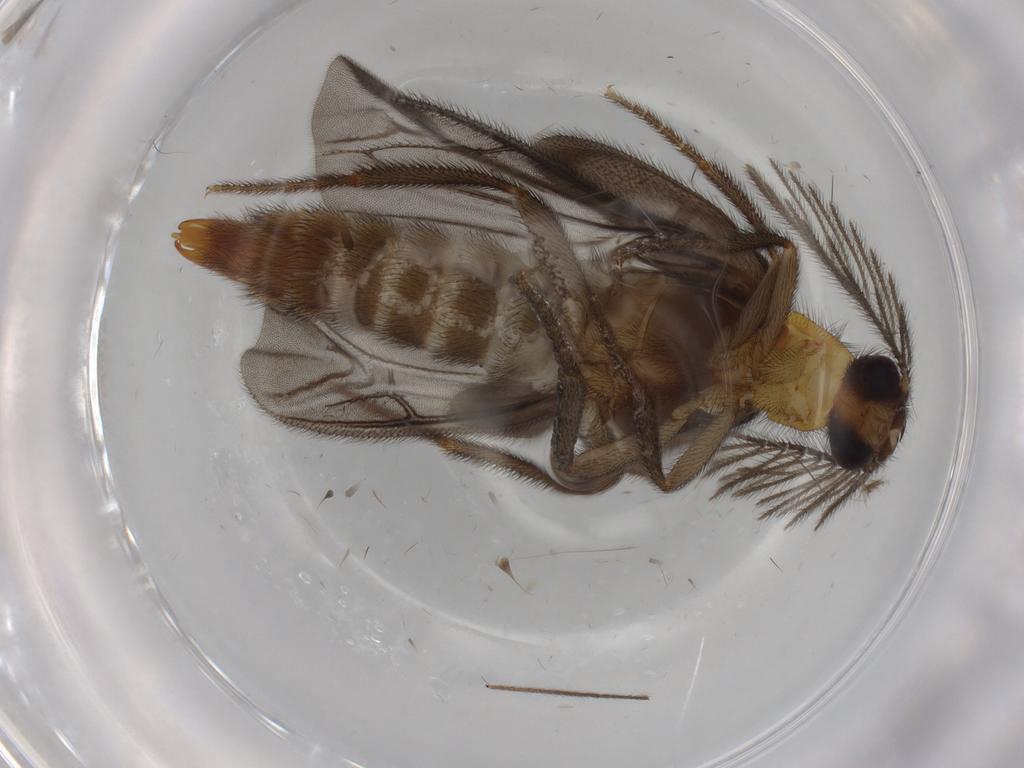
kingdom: Animalia
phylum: Arthropoda
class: Insecta
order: Coleoptera
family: Phengodidae
